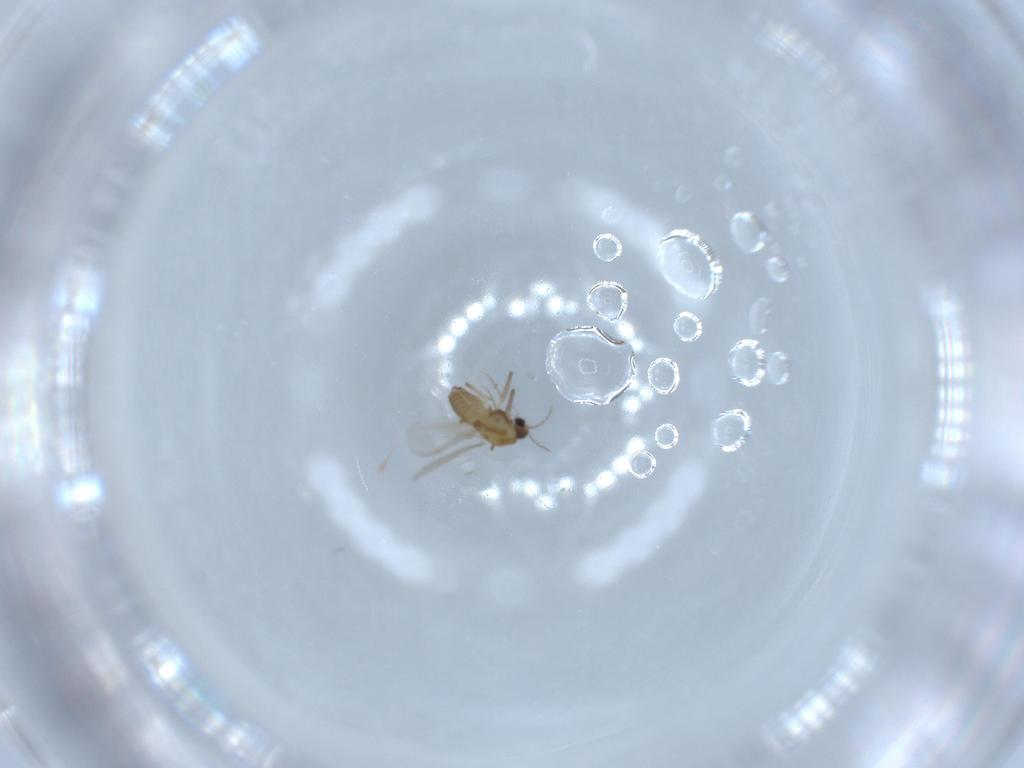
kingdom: Animalia
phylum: Arthropoda
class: Insecta
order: Diptera
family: Chironomidae
